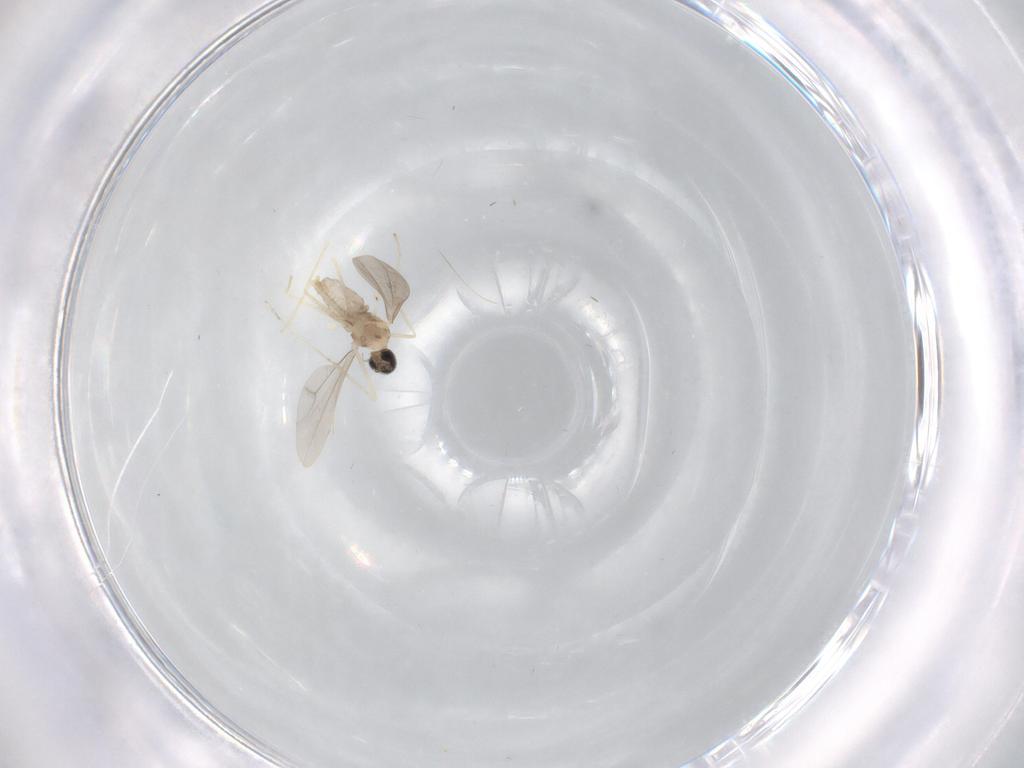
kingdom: Animalia
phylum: Arthropoda
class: Insecta
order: Diptera
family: Cecidomyiidae
